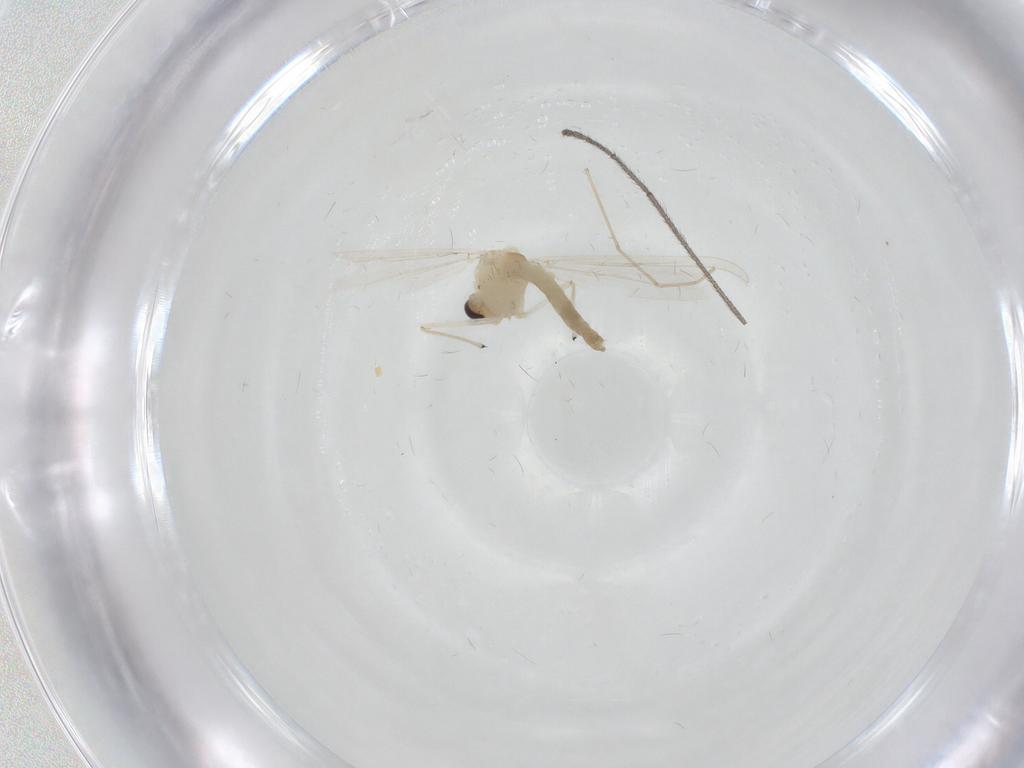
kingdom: Animalia
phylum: Arthropoda
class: Insecta
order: Diptera
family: Chironomidae
